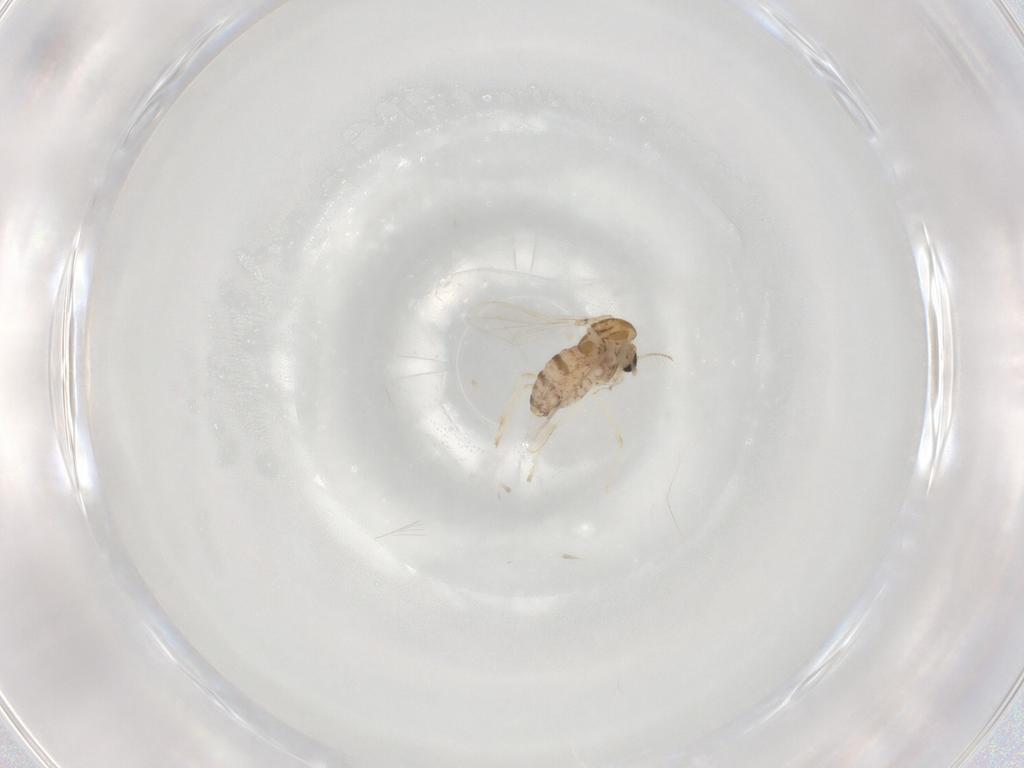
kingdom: Animalia
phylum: Arthropoda
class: Insecta
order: Diptera
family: Chironomidae
